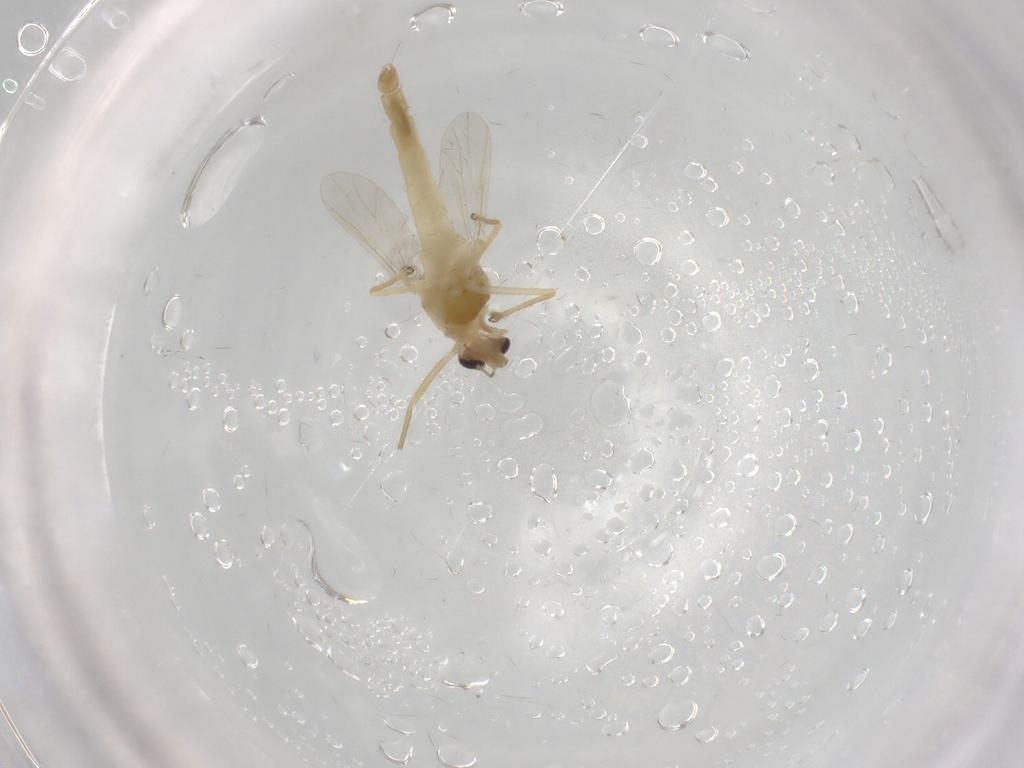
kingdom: Animalia
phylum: Arthropoda
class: Insecta
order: Diptera
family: Chironomidae
